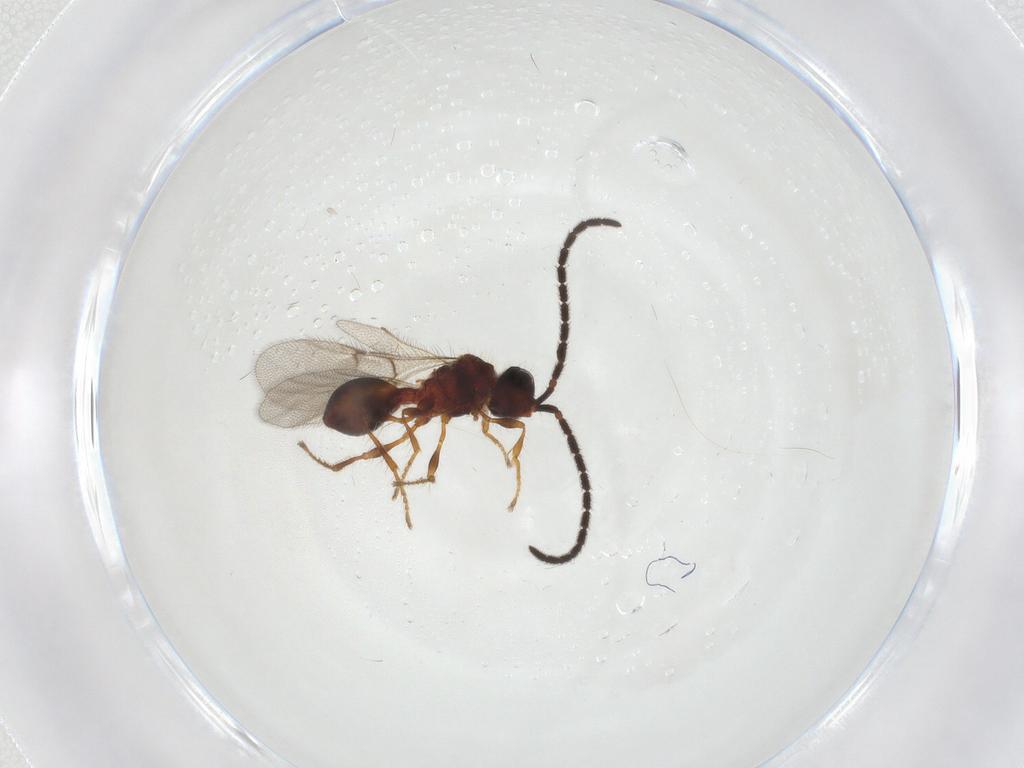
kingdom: Animalia
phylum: Arthropoda
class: Insecta
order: Hymenoptera
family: Diapriidae
